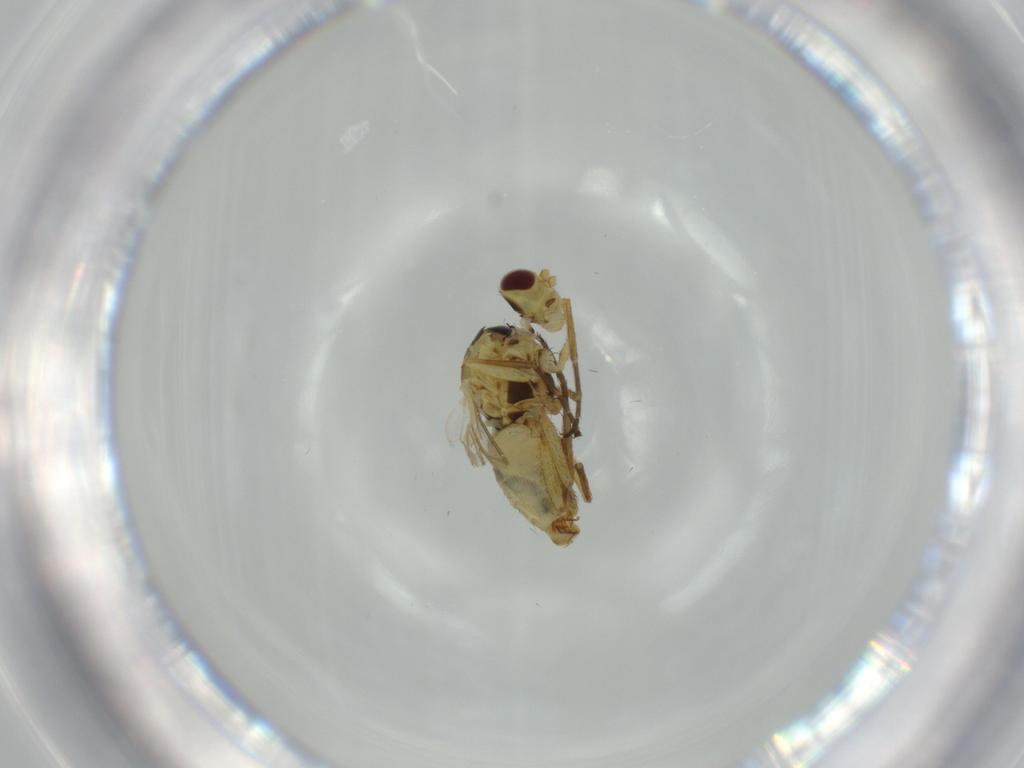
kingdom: Animalia
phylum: Arthropoda
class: Insecta
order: Diptera
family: Agromyzidae
